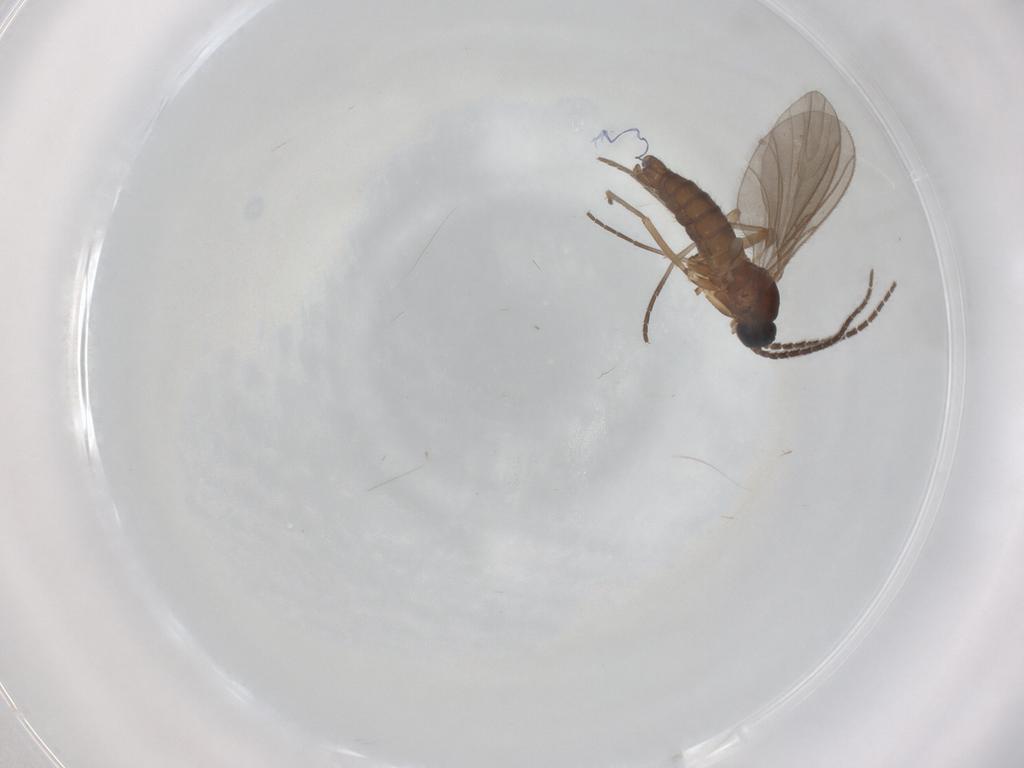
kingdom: Animalia
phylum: Arthropoda
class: Insecta
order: Diptera
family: Sciaridae
